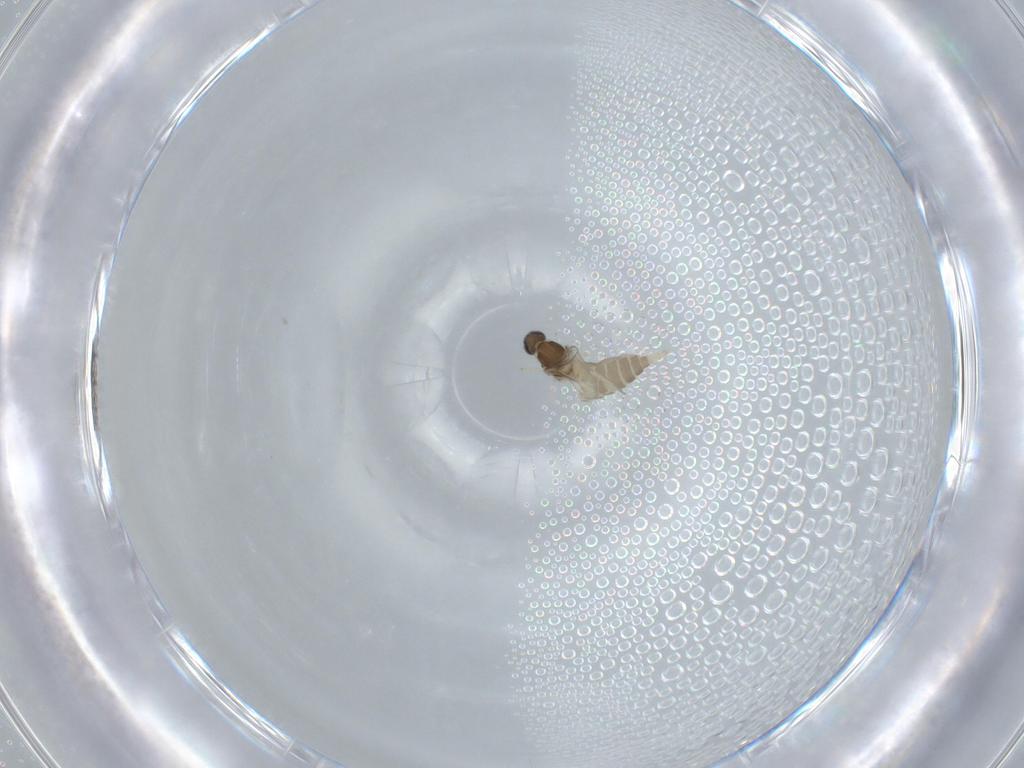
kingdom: Animalia
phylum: Arthropoda
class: Insecta
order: Diptera
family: Cecidomyiidae
